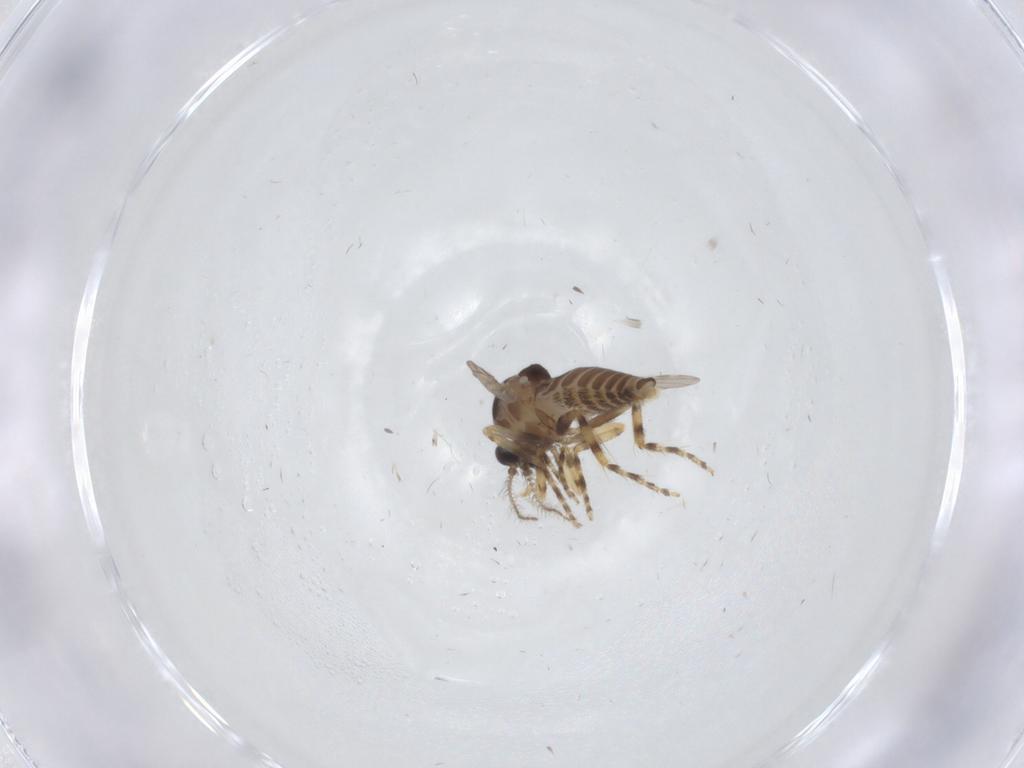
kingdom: Animalia
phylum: Arthropoda
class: Insecta
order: Diptera
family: Ceratopogonidae
